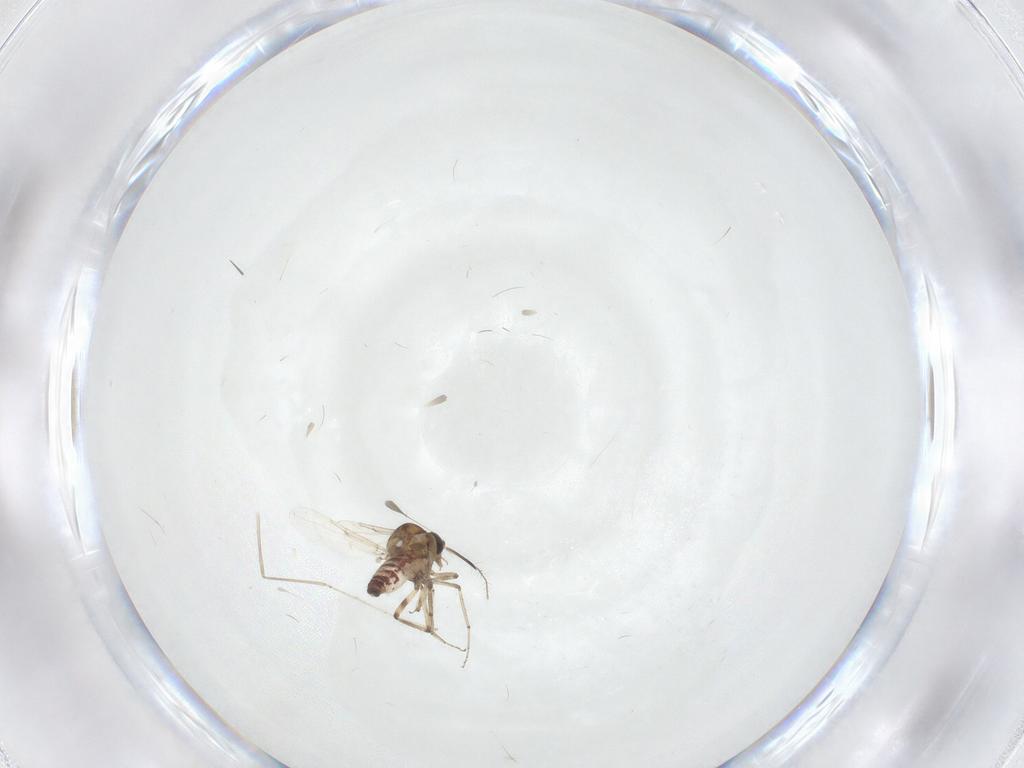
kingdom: Animalia
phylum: Arthropoda
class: Insecta
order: Diptera
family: Ceratopogonidae
